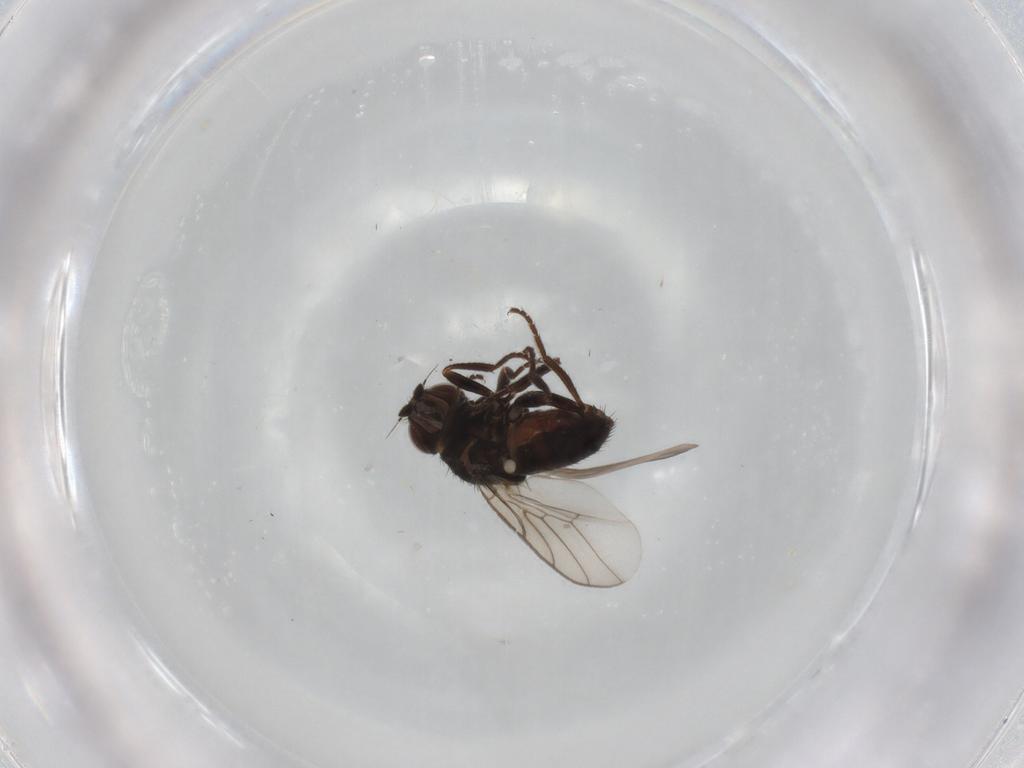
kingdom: Animalia
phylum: Arthropoda
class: Insecta
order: Diptera
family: Chloropidae
